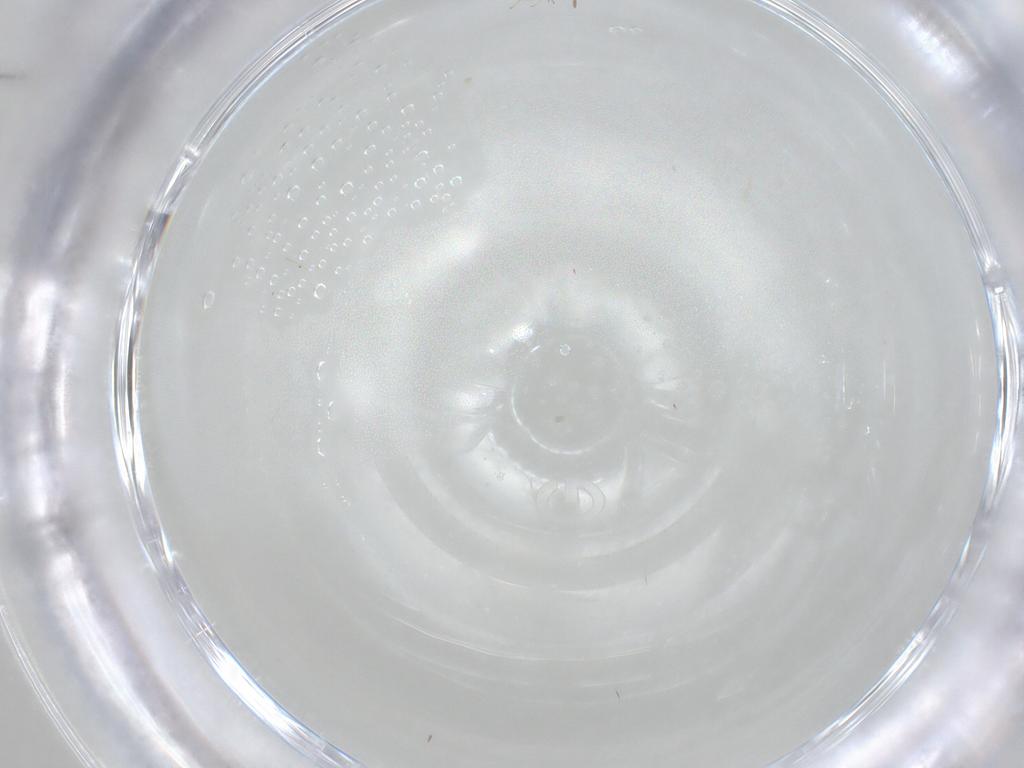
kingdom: Animalia
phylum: Arthropoda
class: Insecta
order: Hymenoptera
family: Mymaridae
